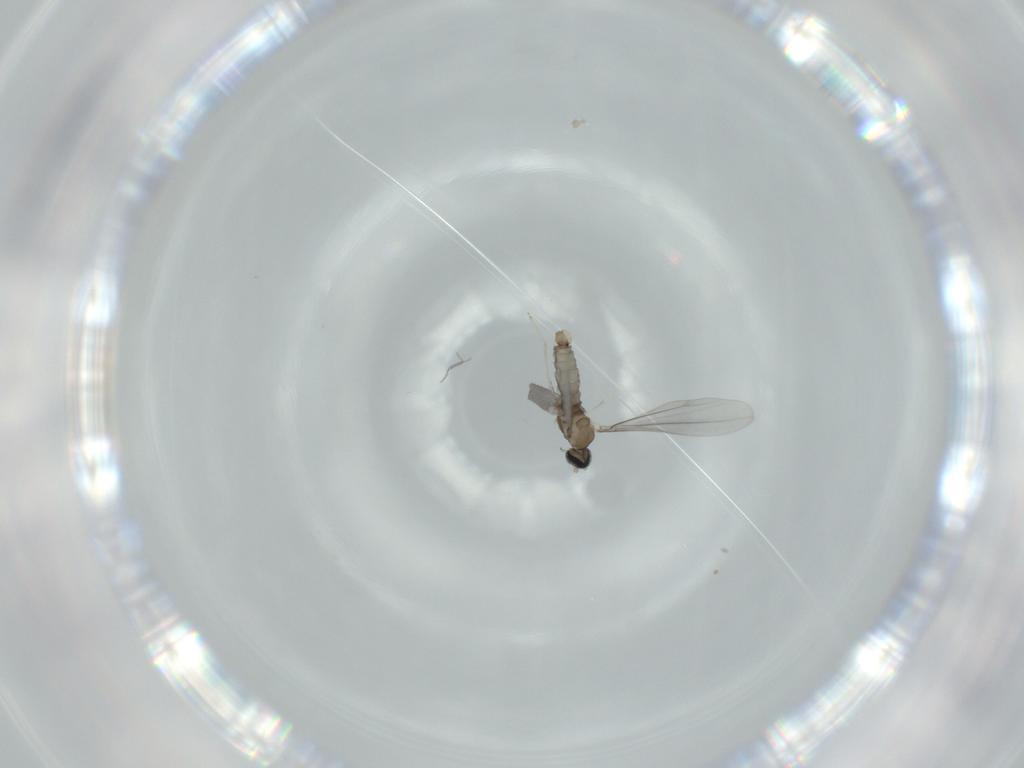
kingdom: Animalia
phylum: Arthropoda
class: Insecta
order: Diptera
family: Cecidomyiidae
